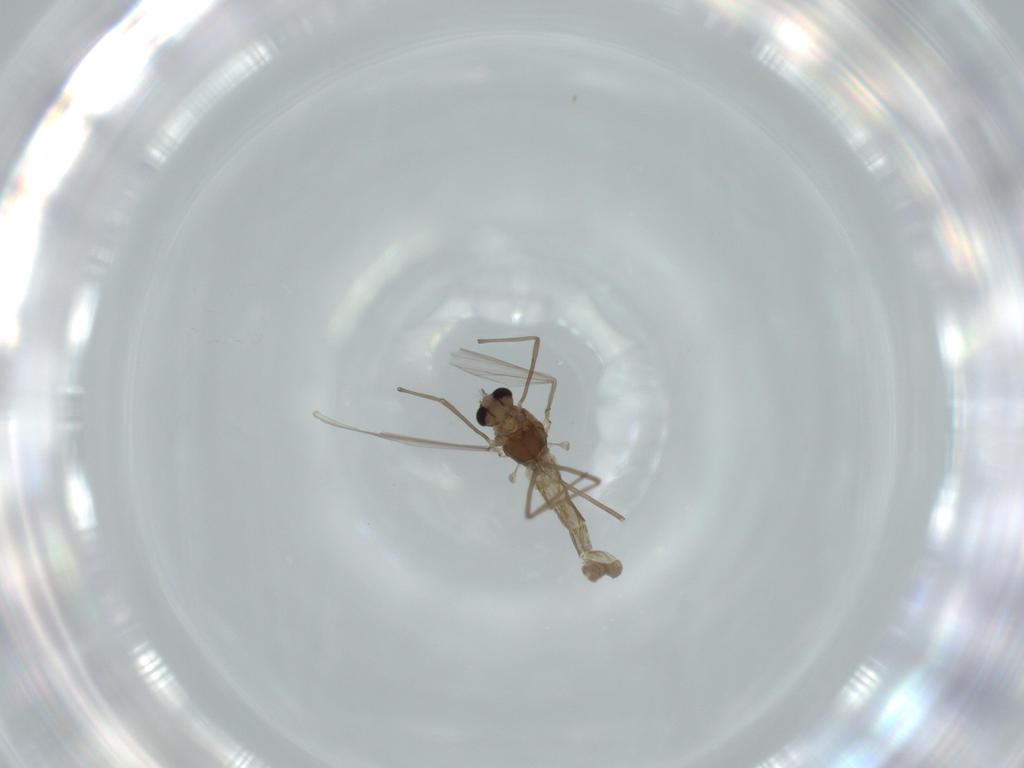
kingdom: Animalia
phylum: Arthropoda
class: Insecta
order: Diptera
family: Chironomidae
